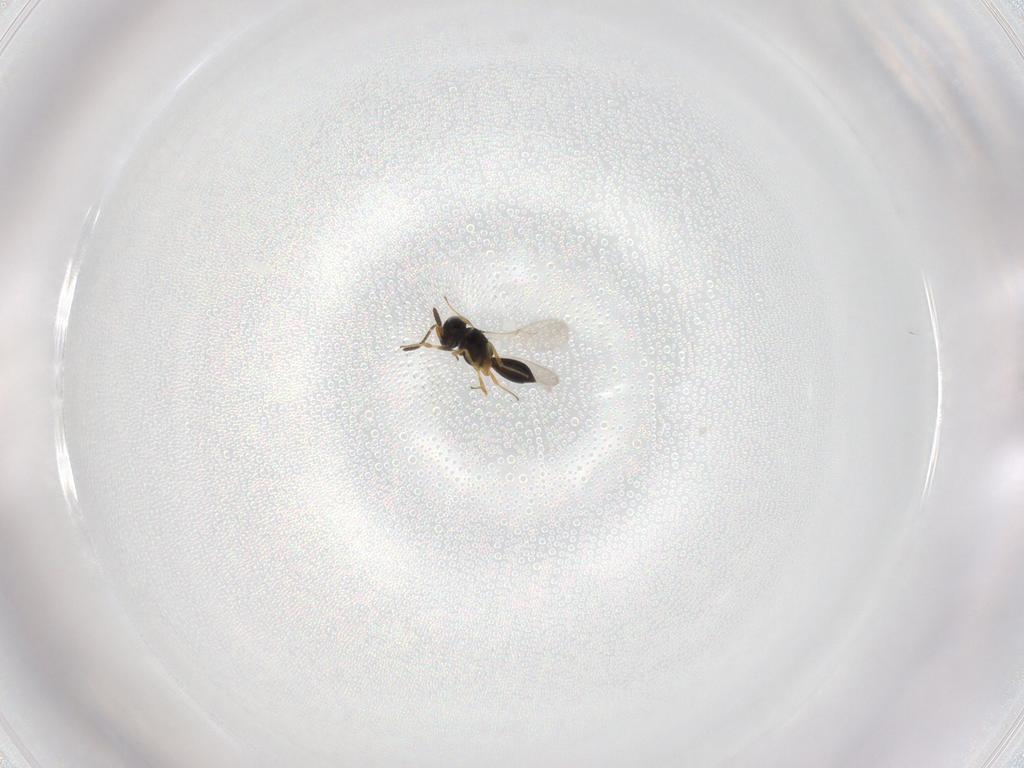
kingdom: Animalia
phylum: Arthropoda
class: Insecta
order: Hymenoptera
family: Scelionidae
